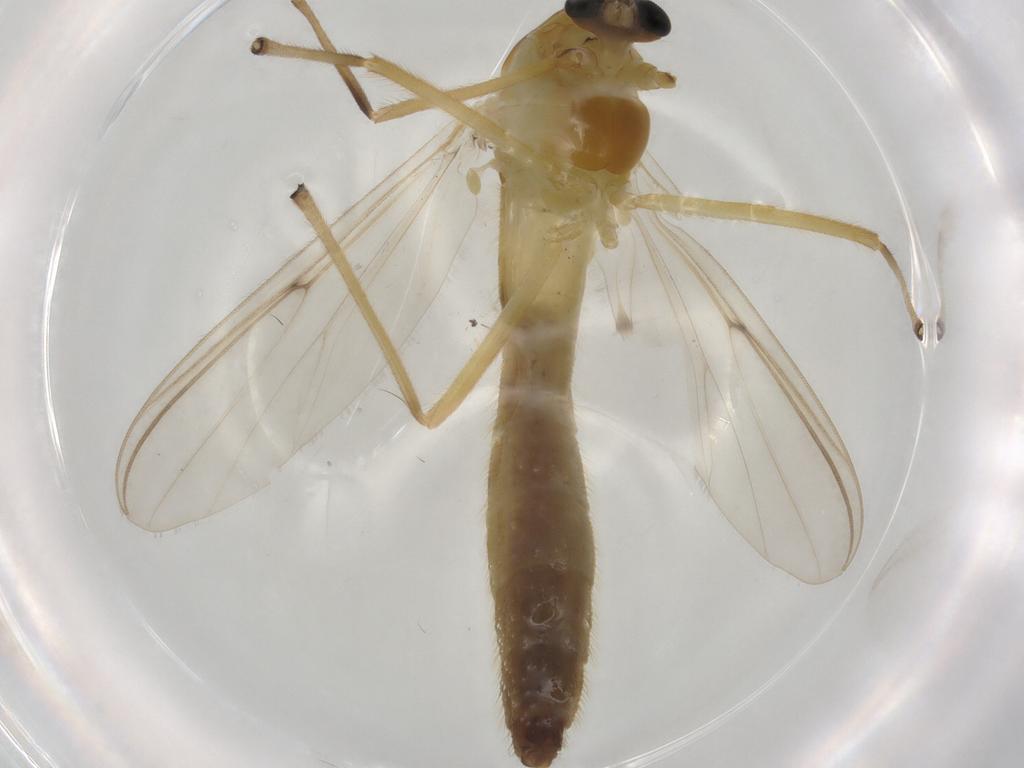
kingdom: Animalia
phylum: Arthropoda
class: Insecta
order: Diptera
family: Chironomidae
